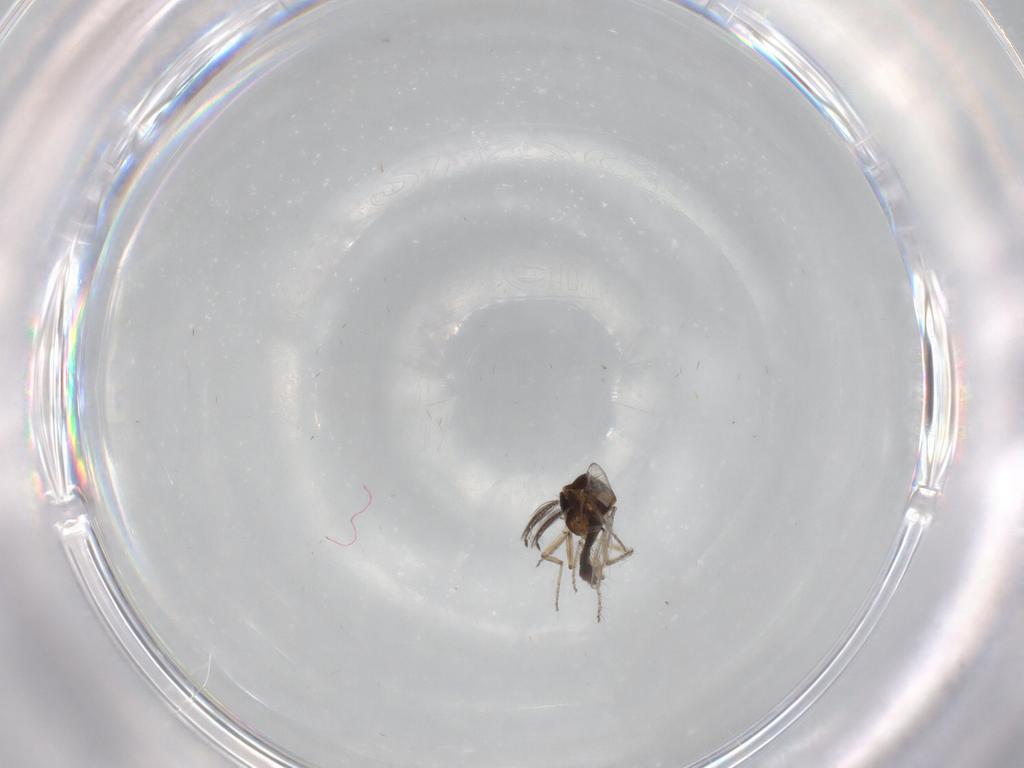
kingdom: Animalia
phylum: Arthropoda
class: Insecta
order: Diptera
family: Ceratopogonidae
